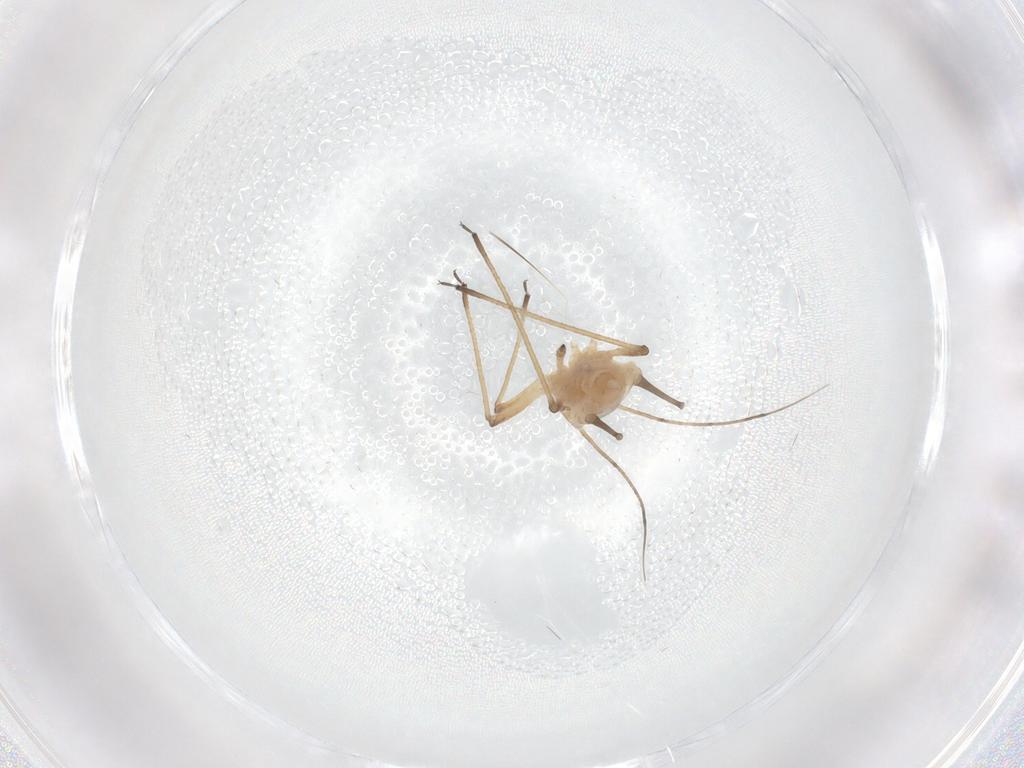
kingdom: Animalia
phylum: Arthropoda
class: Insecta
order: Hemiptera
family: Aphididae
